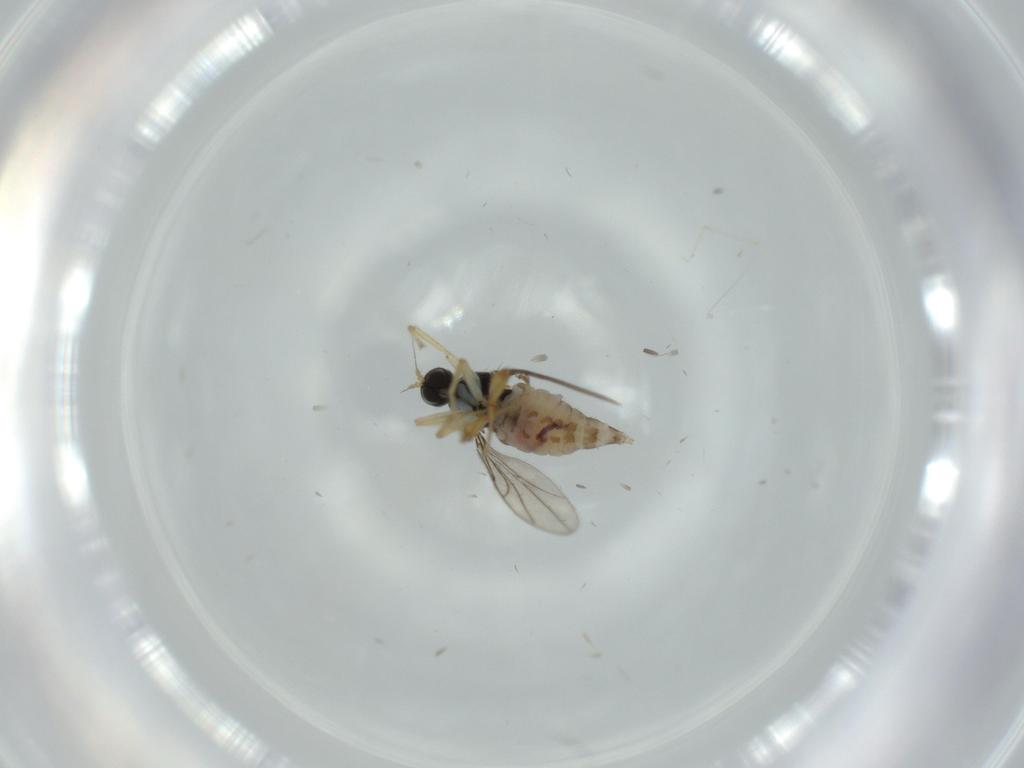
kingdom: Animalia
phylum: Arthropoda
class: Insecta
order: Diptera
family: Hybotidae
